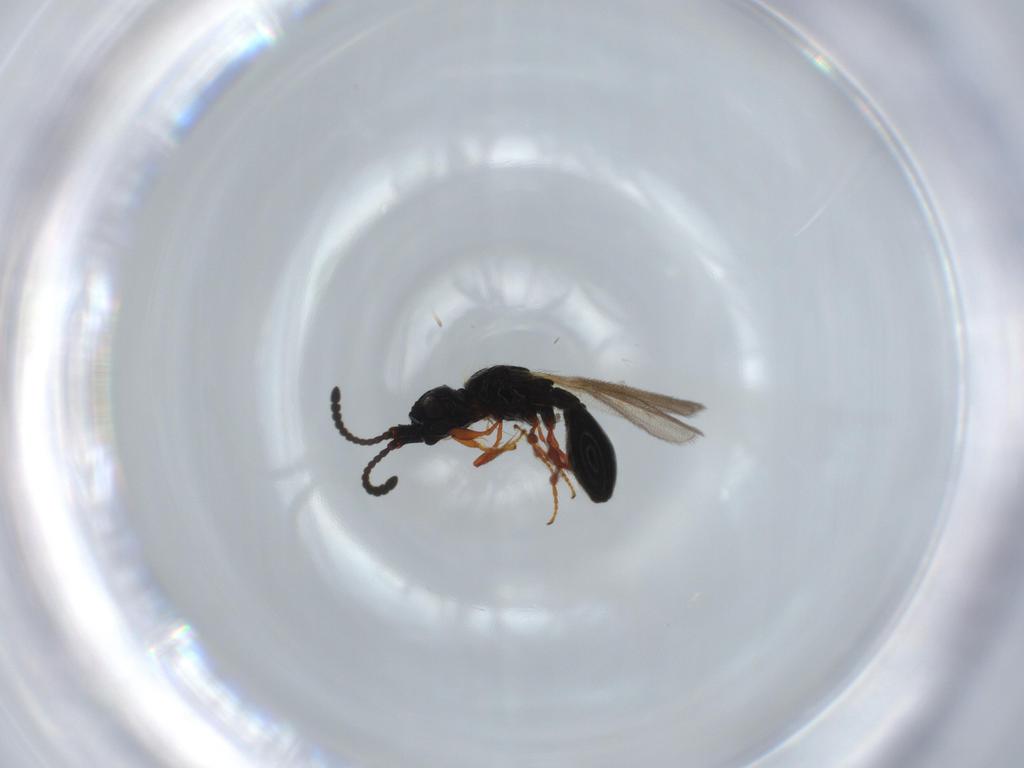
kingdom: Animalia
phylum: Arthropoda
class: Insecta
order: Hymenoptera
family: Diapriidae
